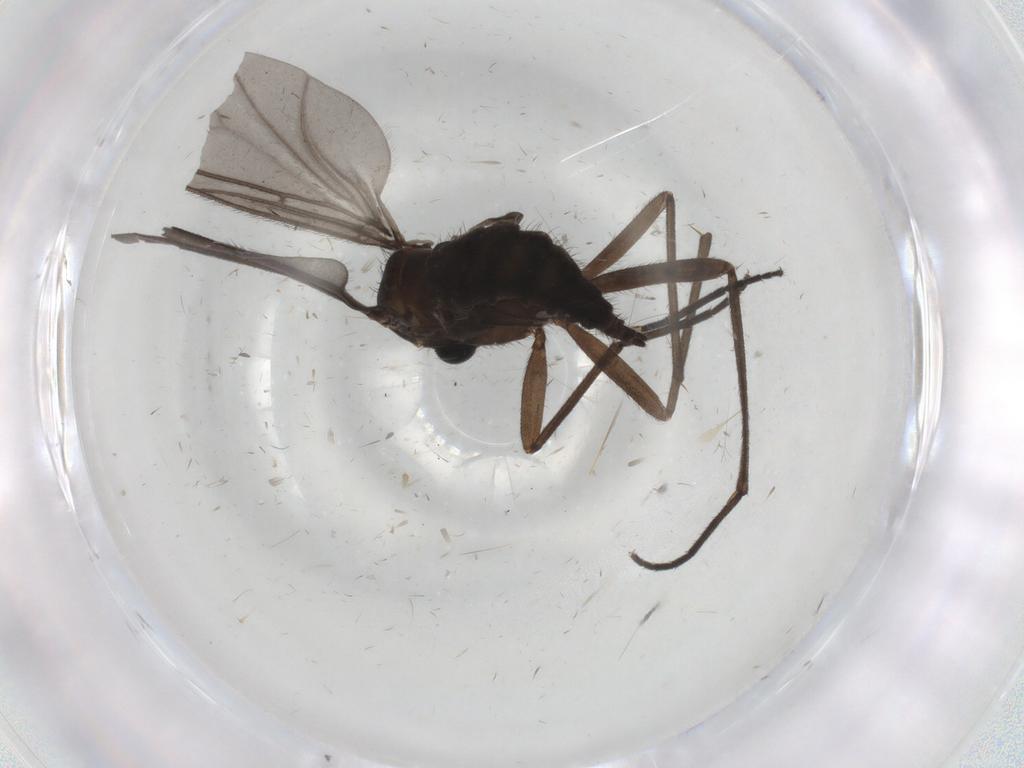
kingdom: Animalia
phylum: Arthropoda
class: Insecta
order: Diptera
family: Sciaridae
